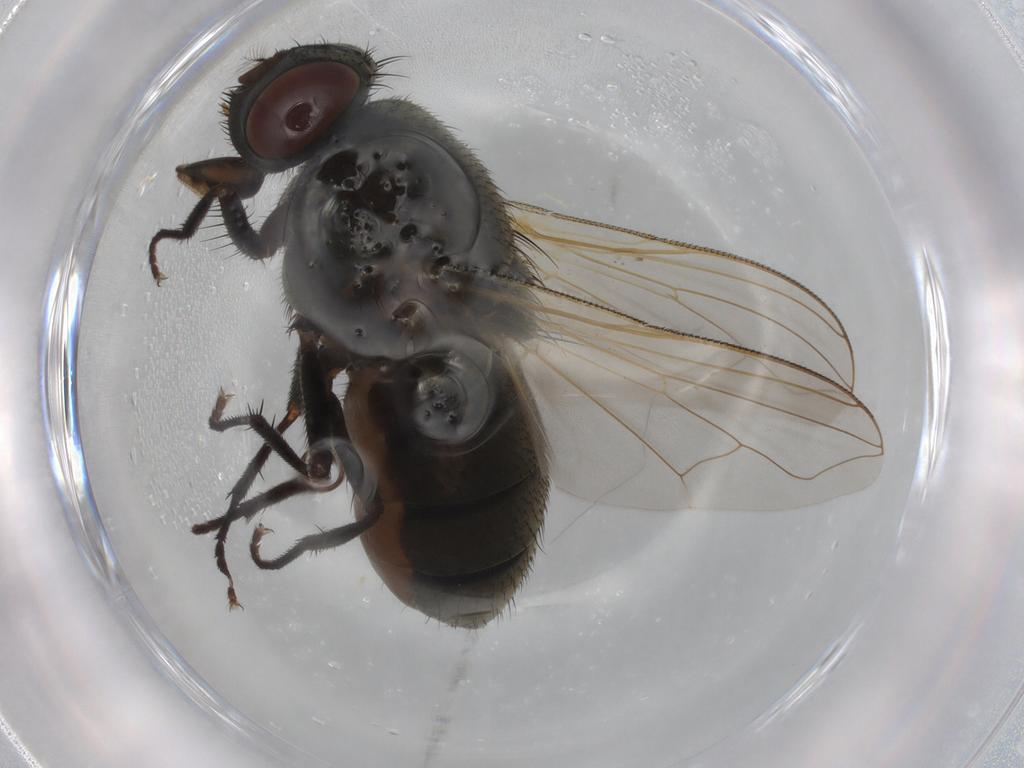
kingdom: Animalia
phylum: Arthropoda
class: Insecta
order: Diptera
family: Muscidae
